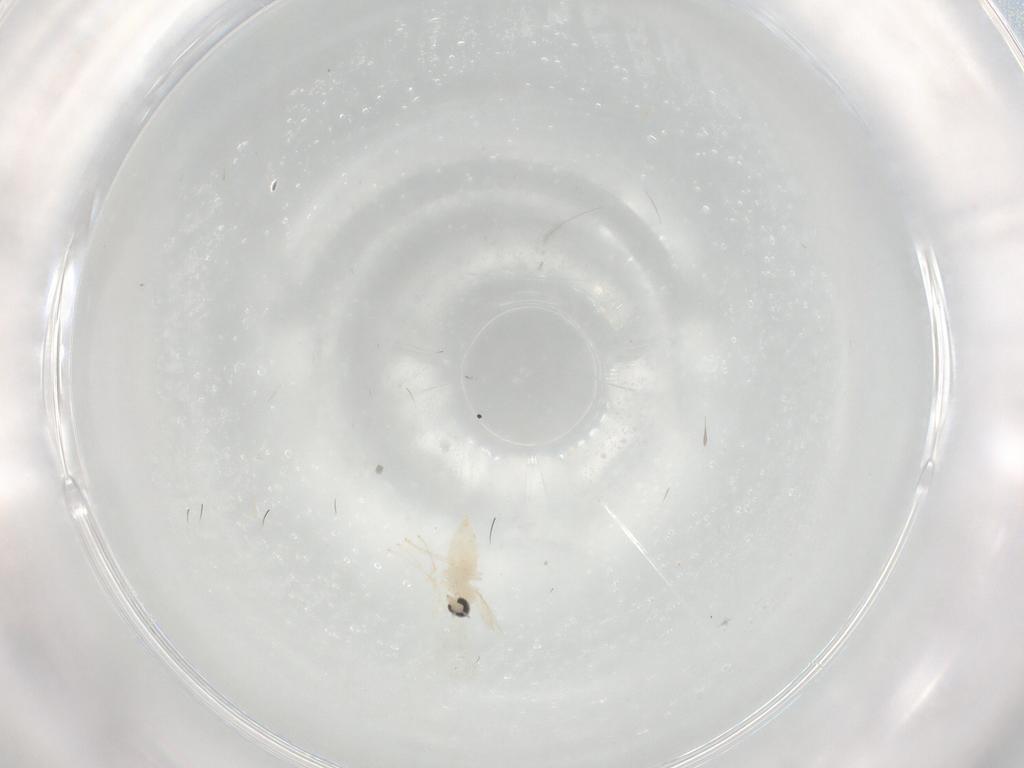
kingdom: Animalia
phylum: Arthropoda
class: Insecta
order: Diptera
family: Cecidomyiidae
